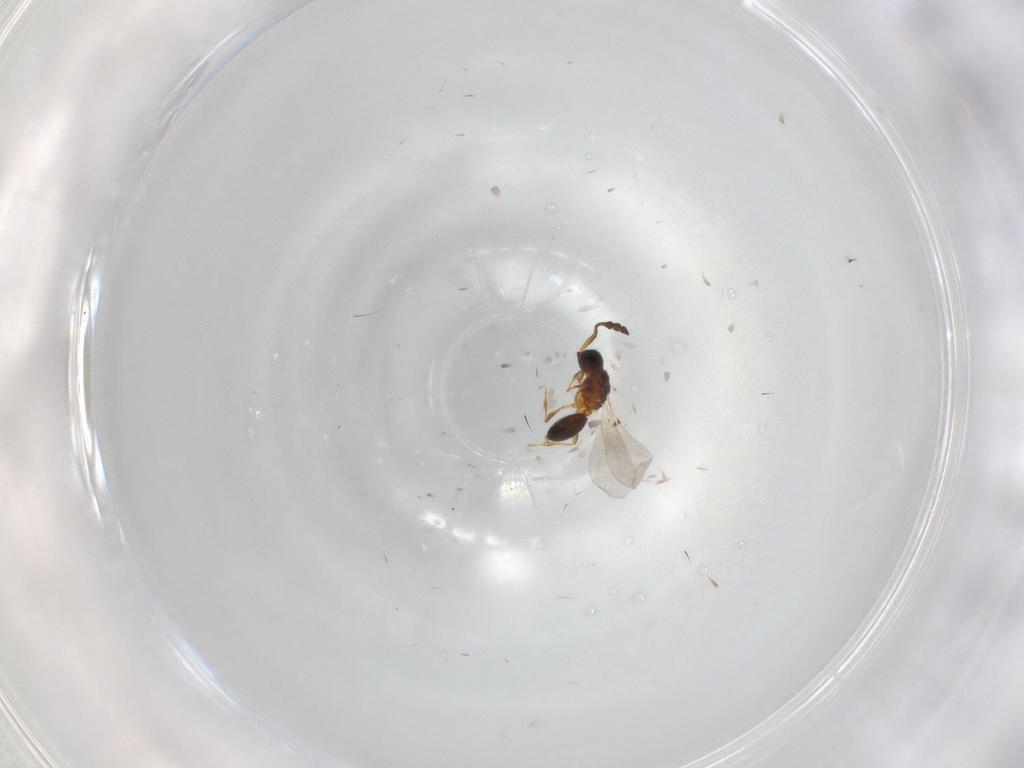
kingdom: Animalia
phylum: Arthropoda
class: Insecta
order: Hymenoptera
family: Diapriidae
